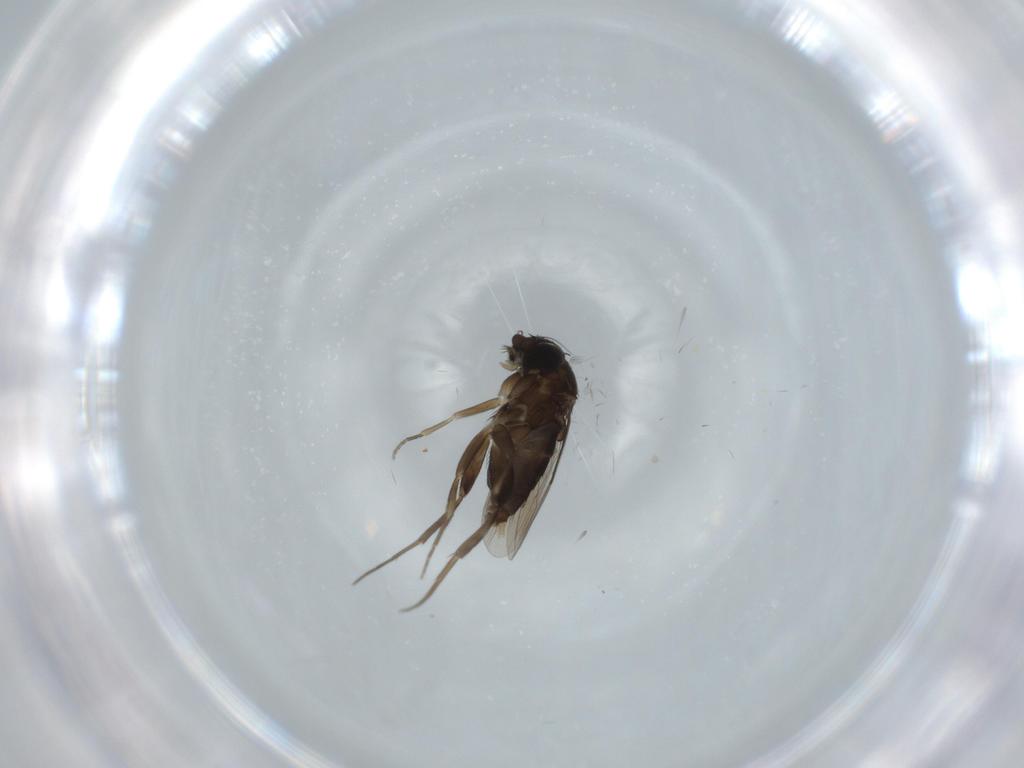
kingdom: Animalia
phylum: Arthropoda
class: Insecta
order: Diptera
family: Phoridae
